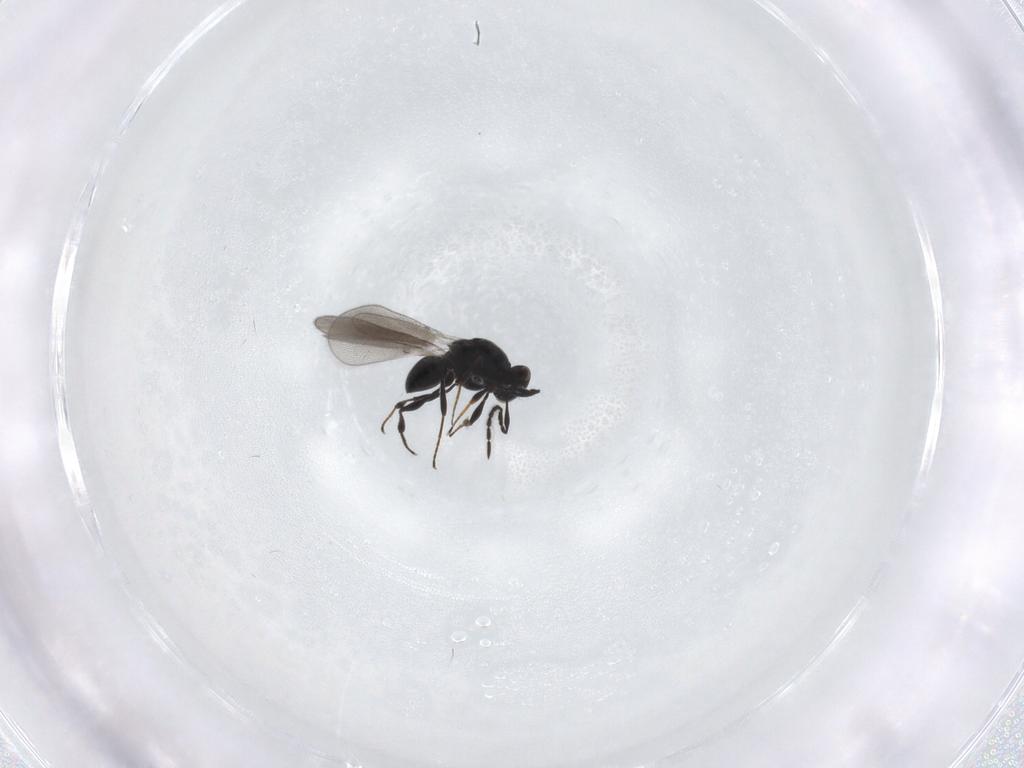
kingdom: Animalia
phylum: Arthropoda
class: Insecta
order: Hymenoptera
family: Platygastridae
